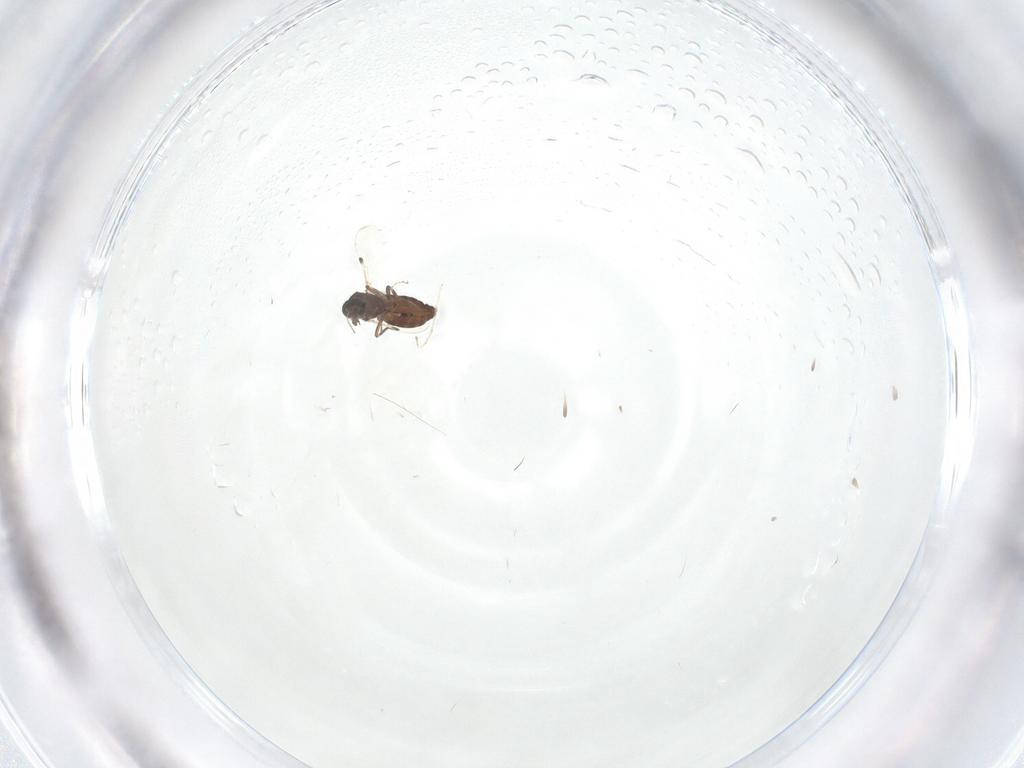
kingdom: Animalia
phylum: Arthropoda
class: Insecta
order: Diptera
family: Cecidomyiidae
